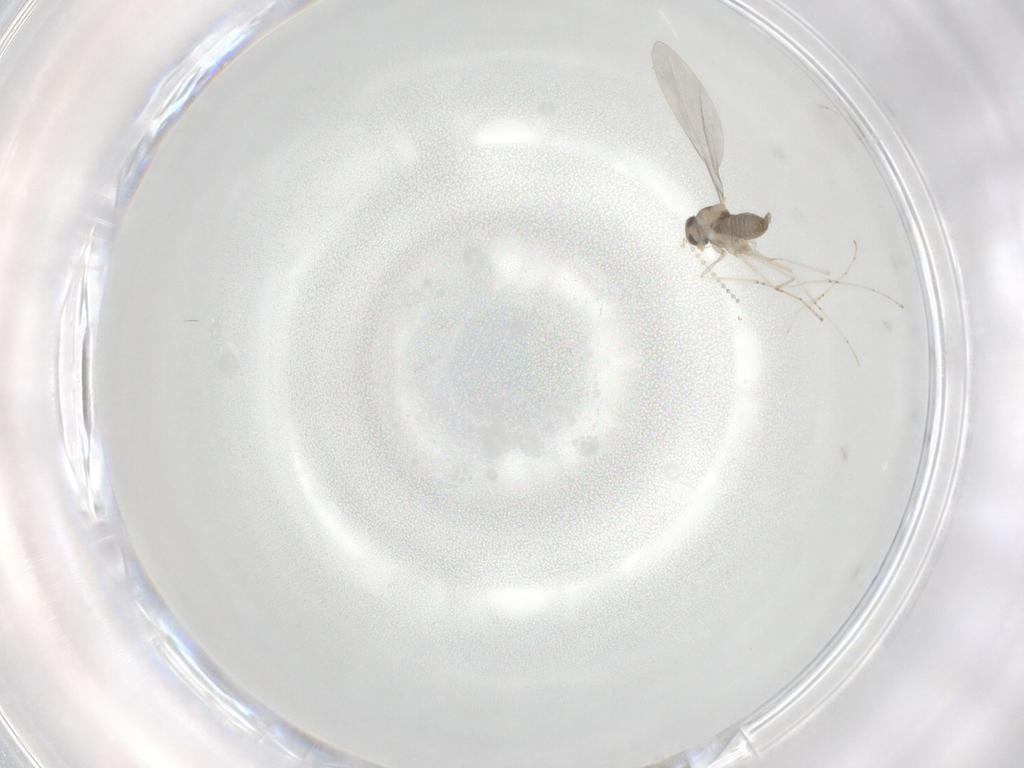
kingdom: Animalia
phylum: Arthropoda
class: Insecta
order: Diptera
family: Cecidomyiidae
